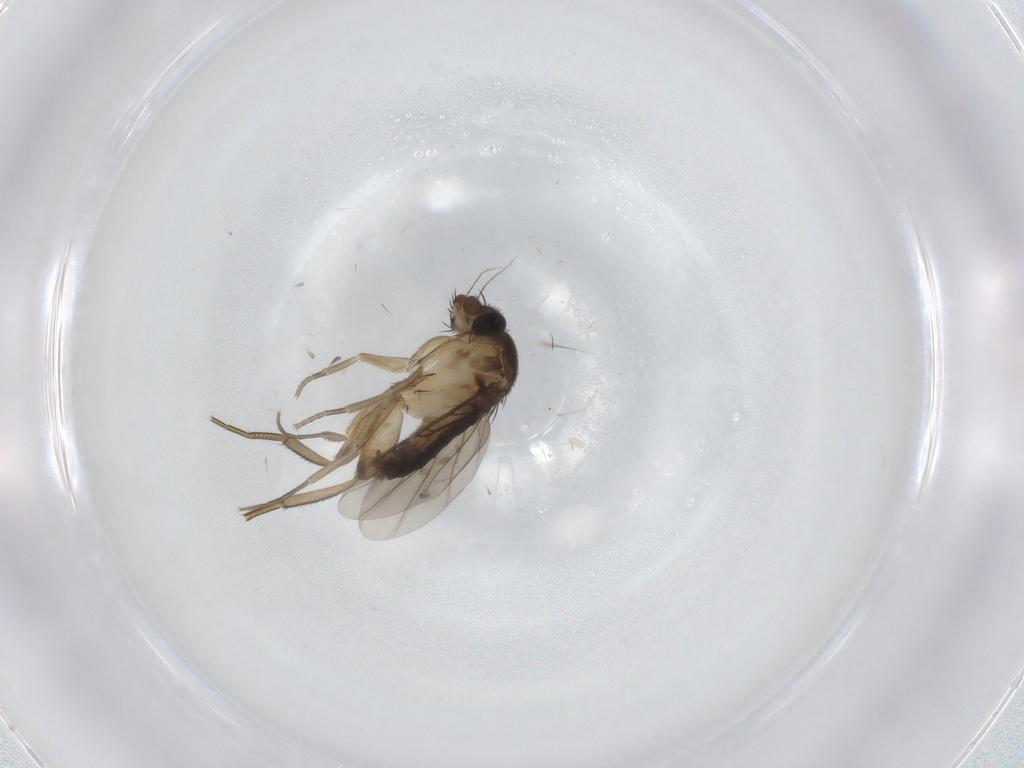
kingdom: Animalia
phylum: Arthropoda
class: Insecta
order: Diptera
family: Phoridae
